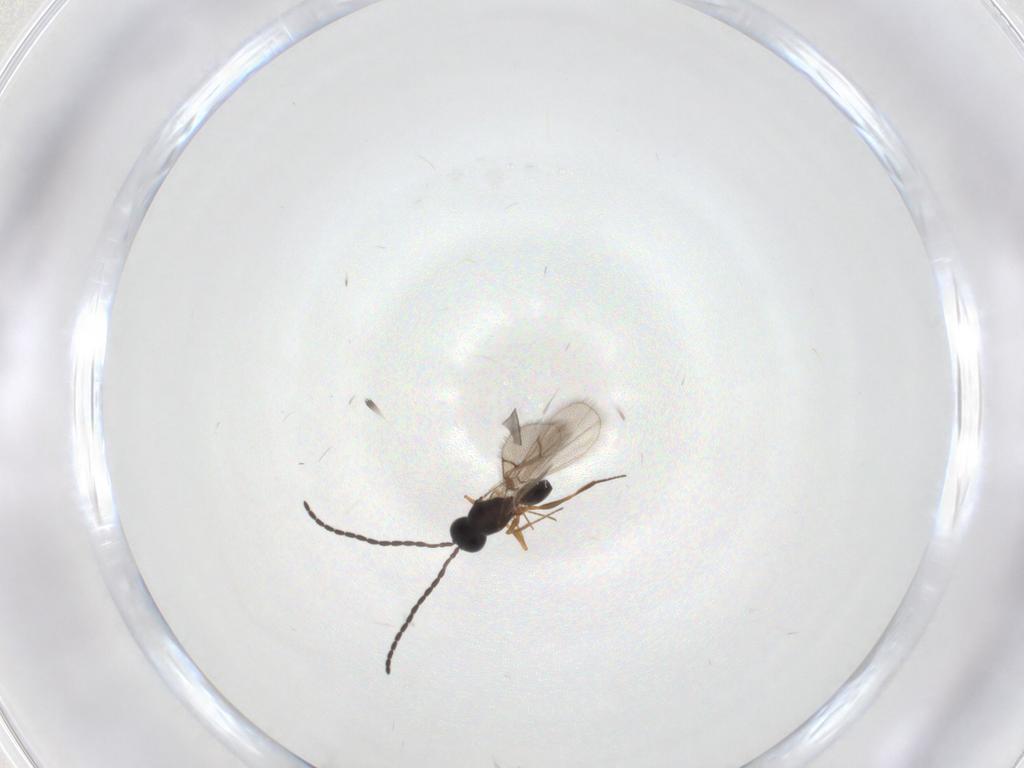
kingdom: Animalia
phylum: Arthropoda
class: Insecta
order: Hymenoptera
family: Figitidae
